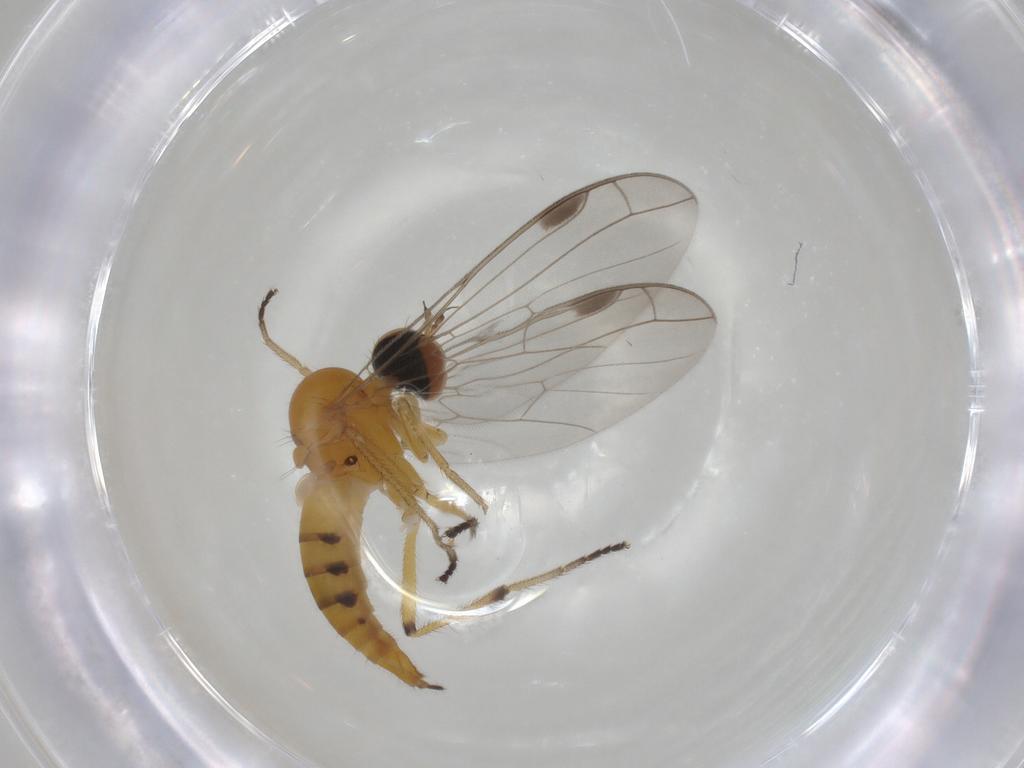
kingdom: Animalia
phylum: Arthropoda
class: Insecta
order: Diptera
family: Empididae
